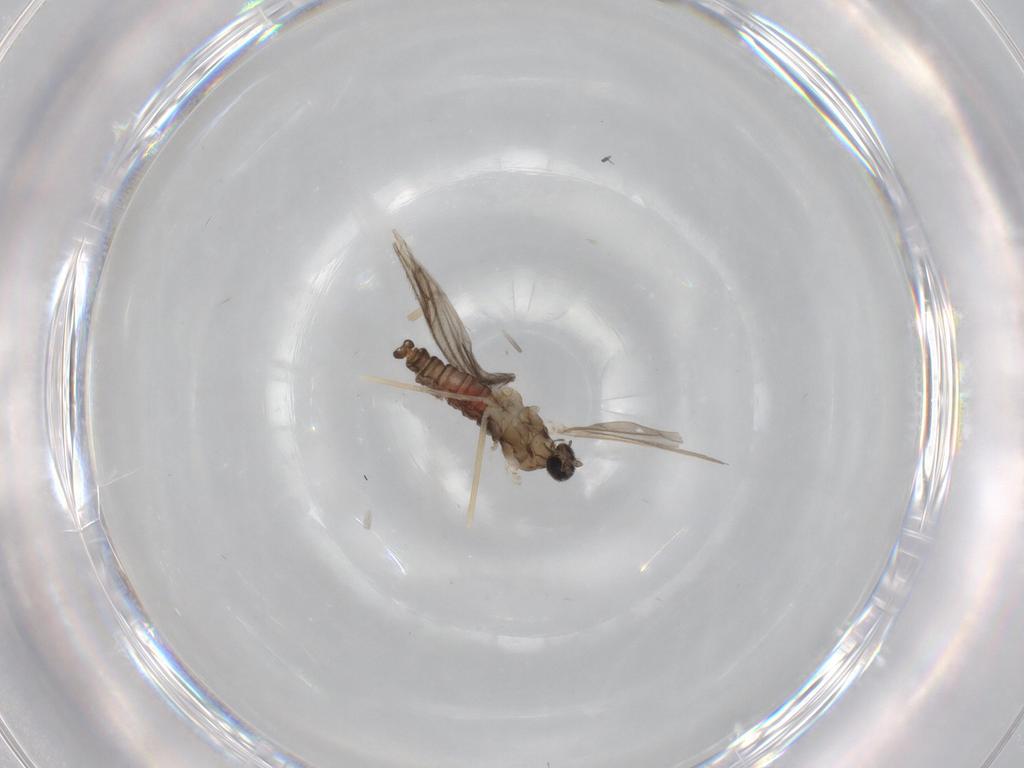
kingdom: Animalia
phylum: Arthropoda
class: Insecta
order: Diptera
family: Sciaridae
